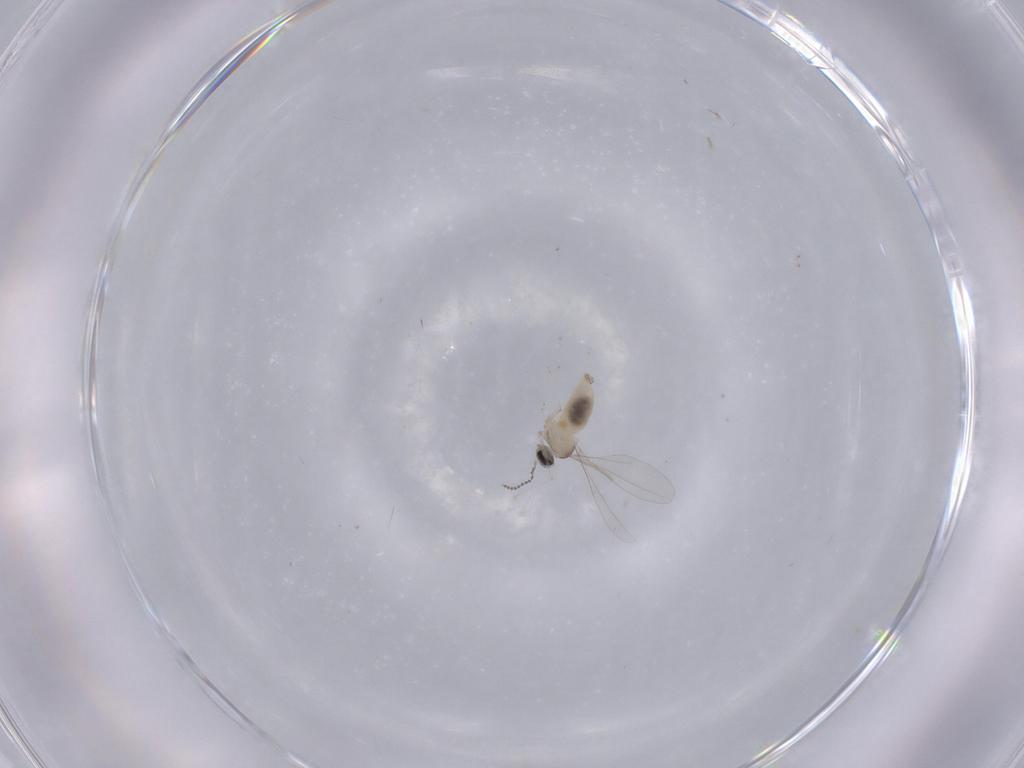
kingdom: Animalia
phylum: Arthropoda
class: Insecta
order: Diptera
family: Cecidomyiidae
